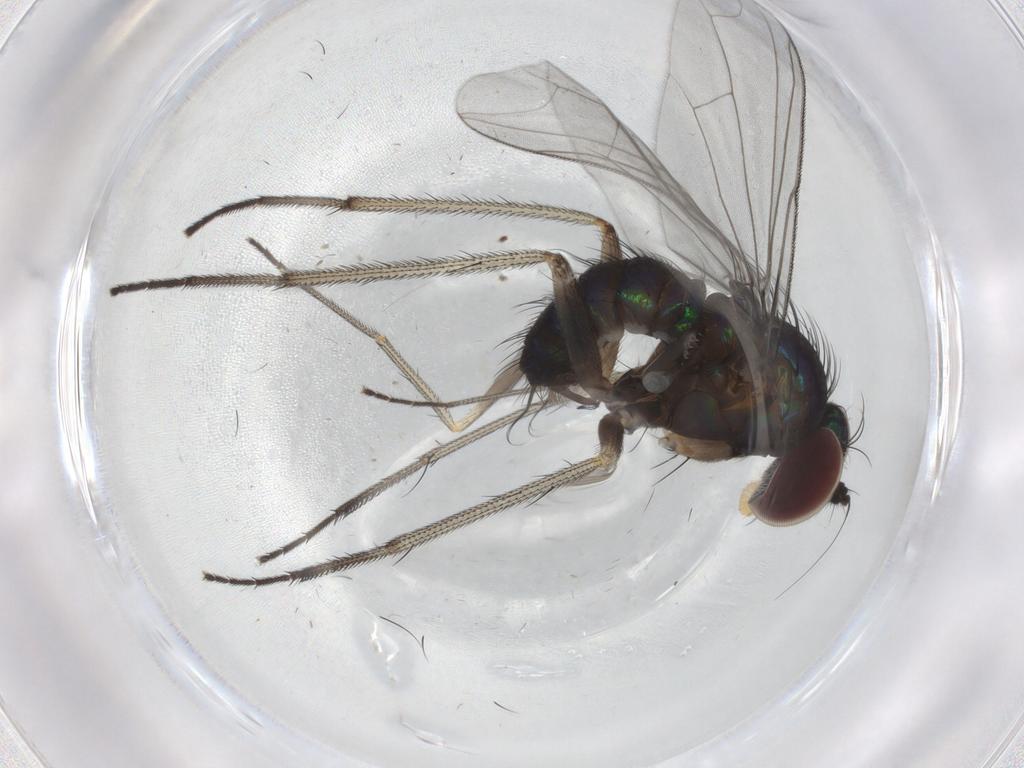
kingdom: Animalia
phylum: Arthropoda
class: Insecta
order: Diptera
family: Dolichopodidae
